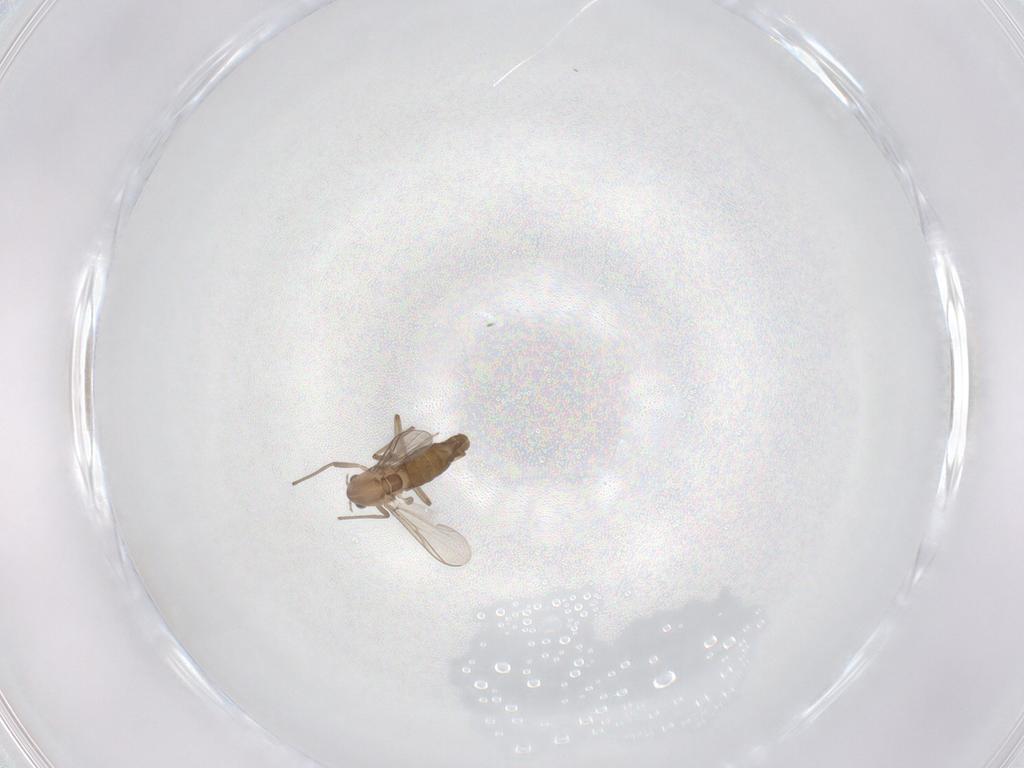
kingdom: Animalia
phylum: Arthropoda
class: Insecta
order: Diptera
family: Chironomidae
